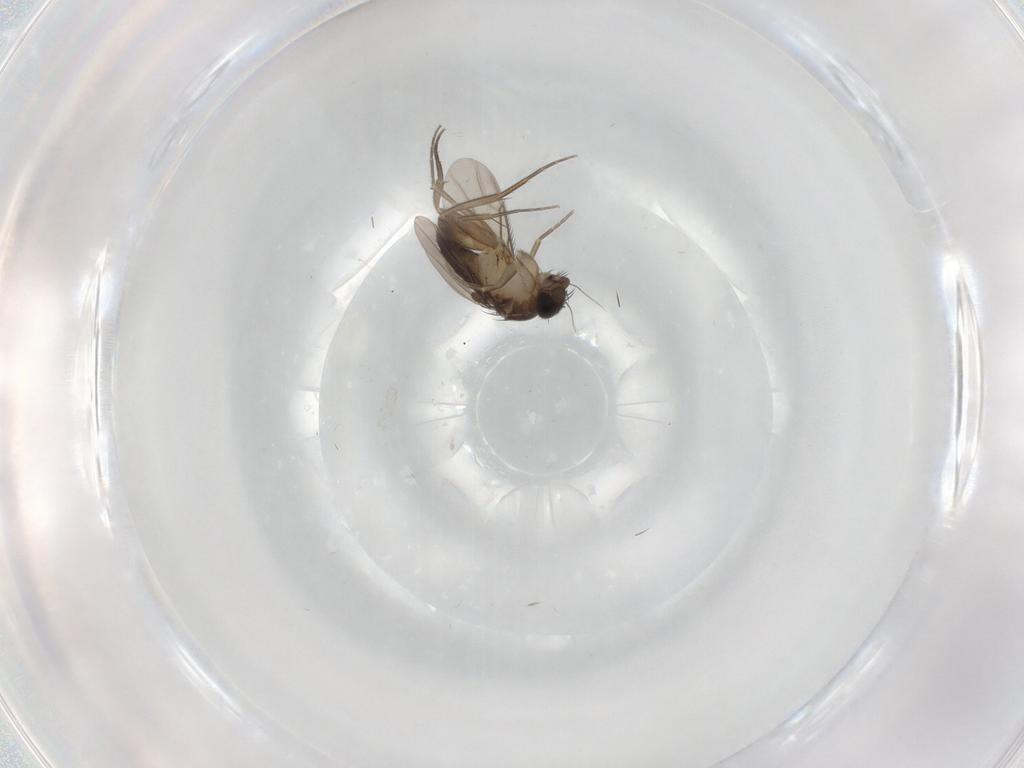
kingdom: Animalia
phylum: Arthropoda
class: Insecta
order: Diptera
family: Phoridae
